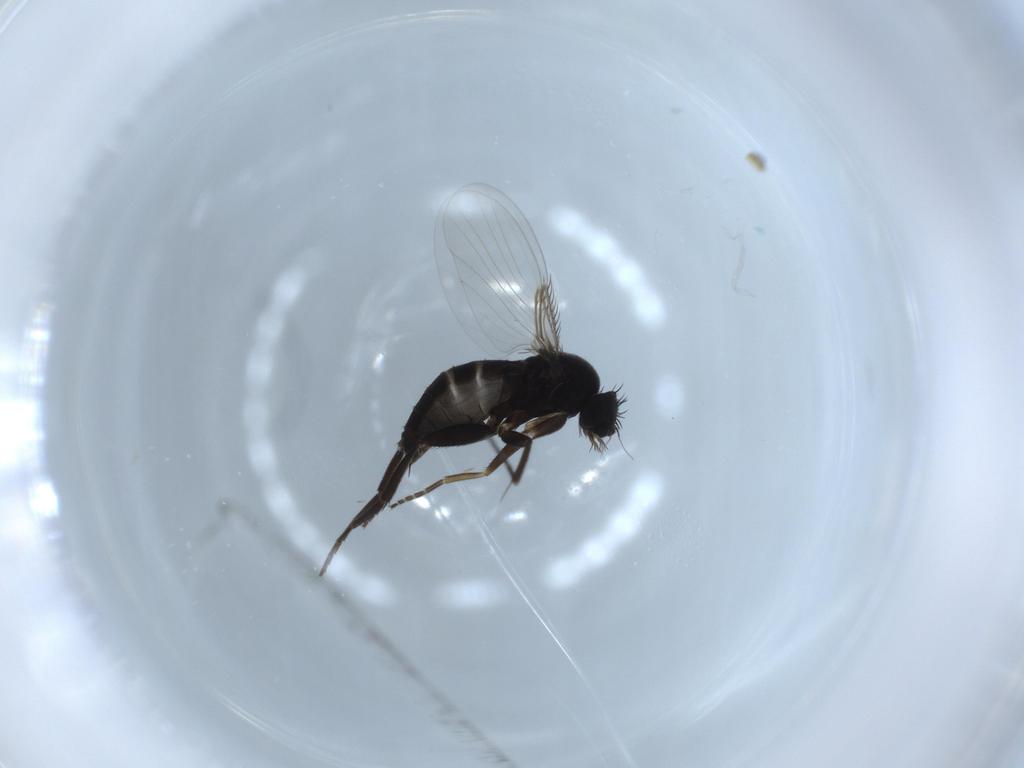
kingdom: Animalia
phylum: Arthropoda
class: Insecta
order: Diptera
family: Phoridae
